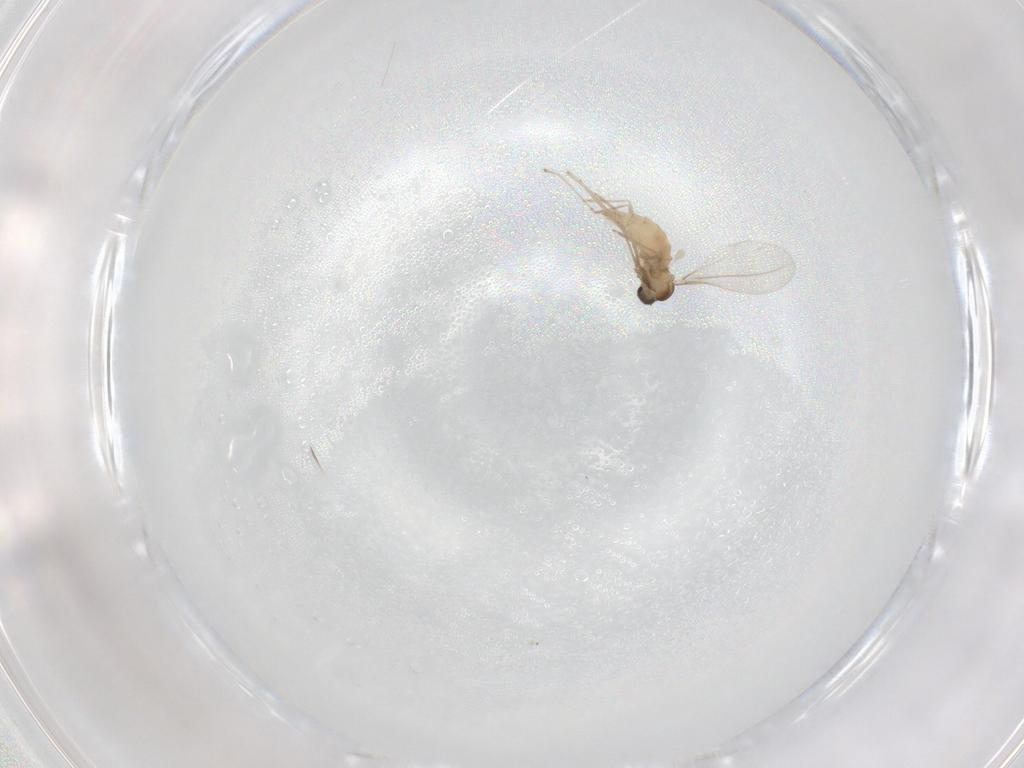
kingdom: Animalia
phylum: Arthropoda
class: Insecta
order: Diptera
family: Cecidomyiidae
